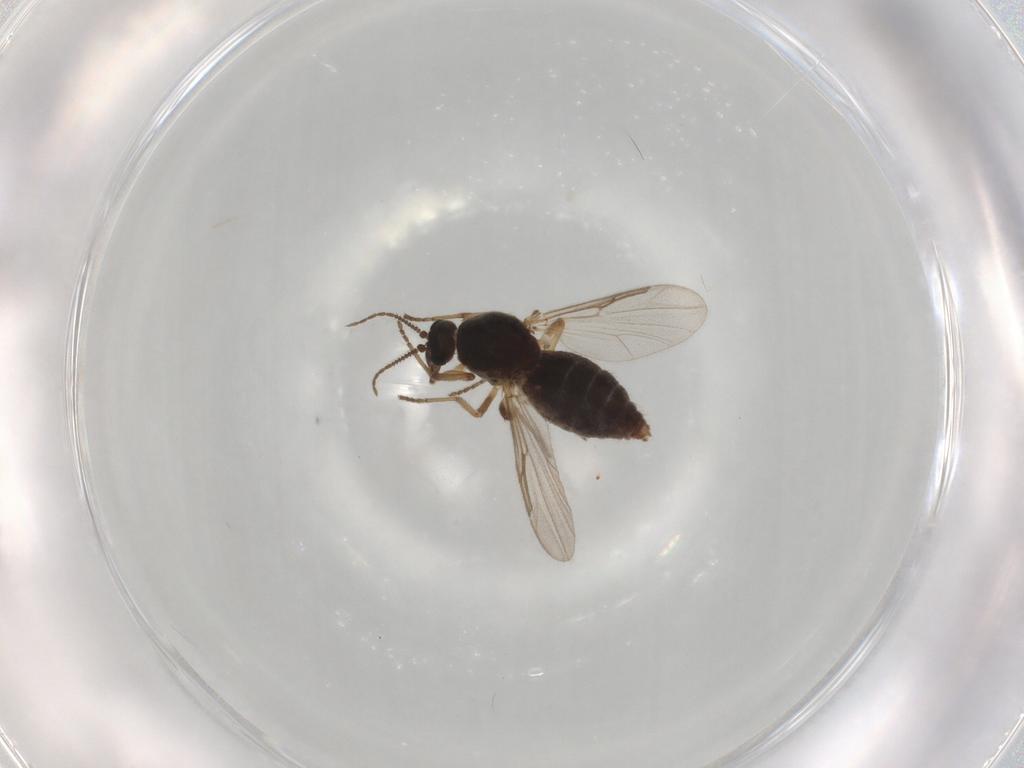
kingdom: Animalia
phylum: Arthropoda
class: Insecta
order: Diptera
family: Ceratopogonidae
